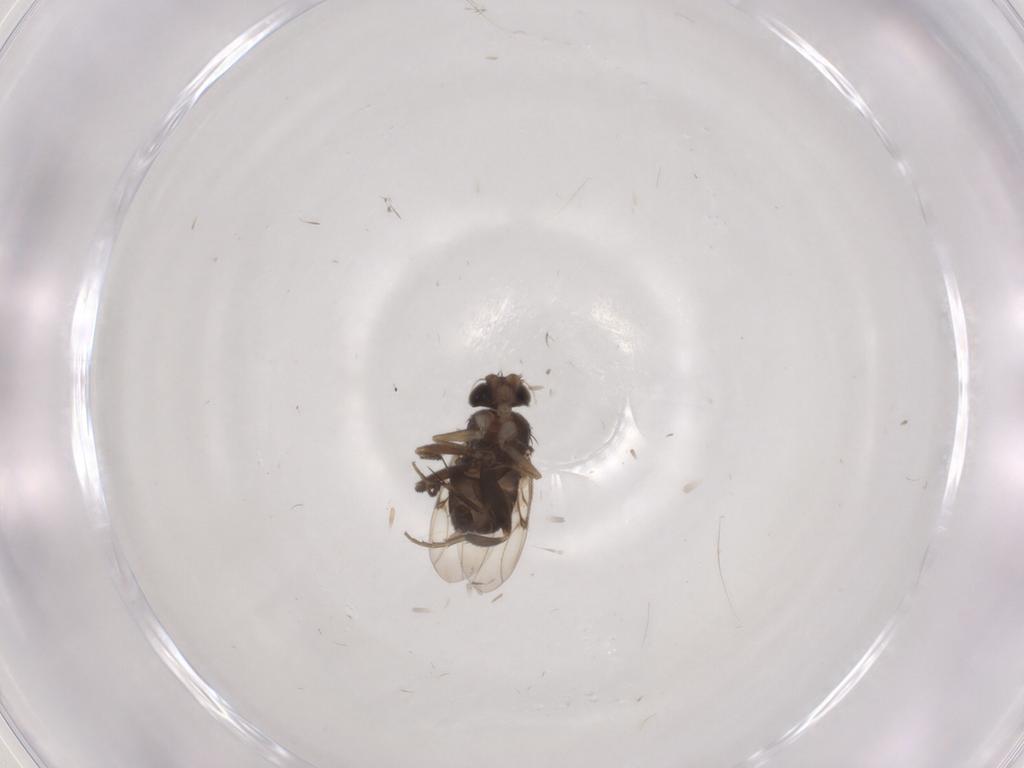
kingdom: Animalia
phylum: Arthropoda
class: Insecta
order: Diptera
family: Phoridae
